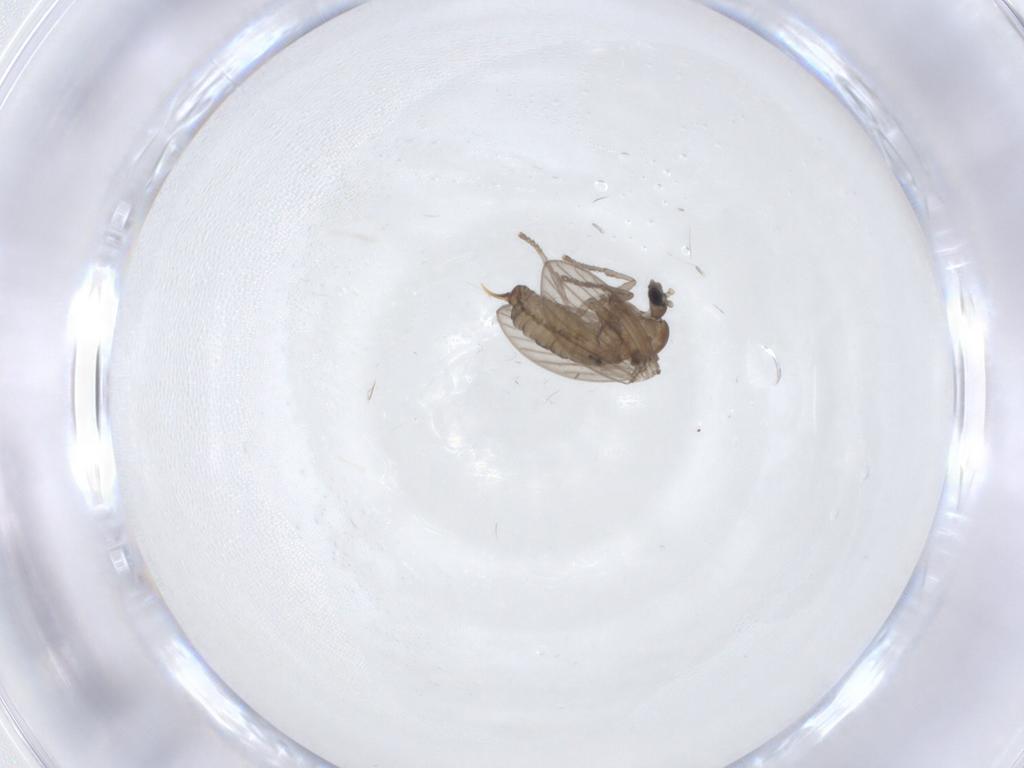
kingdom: Animalia
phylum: Arthropoda
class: Insecta
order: Diptera
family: Psychodidae
